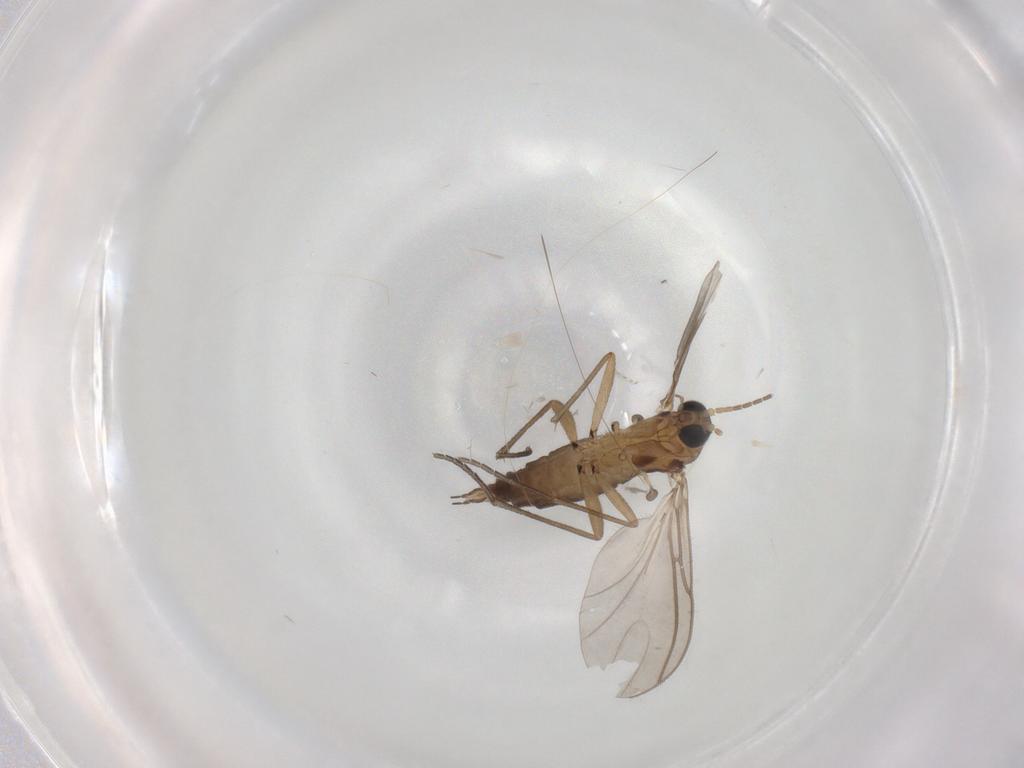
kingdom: Animalia
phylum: Arthropoda
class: Insecta
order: Diptera
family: Sciaridae
